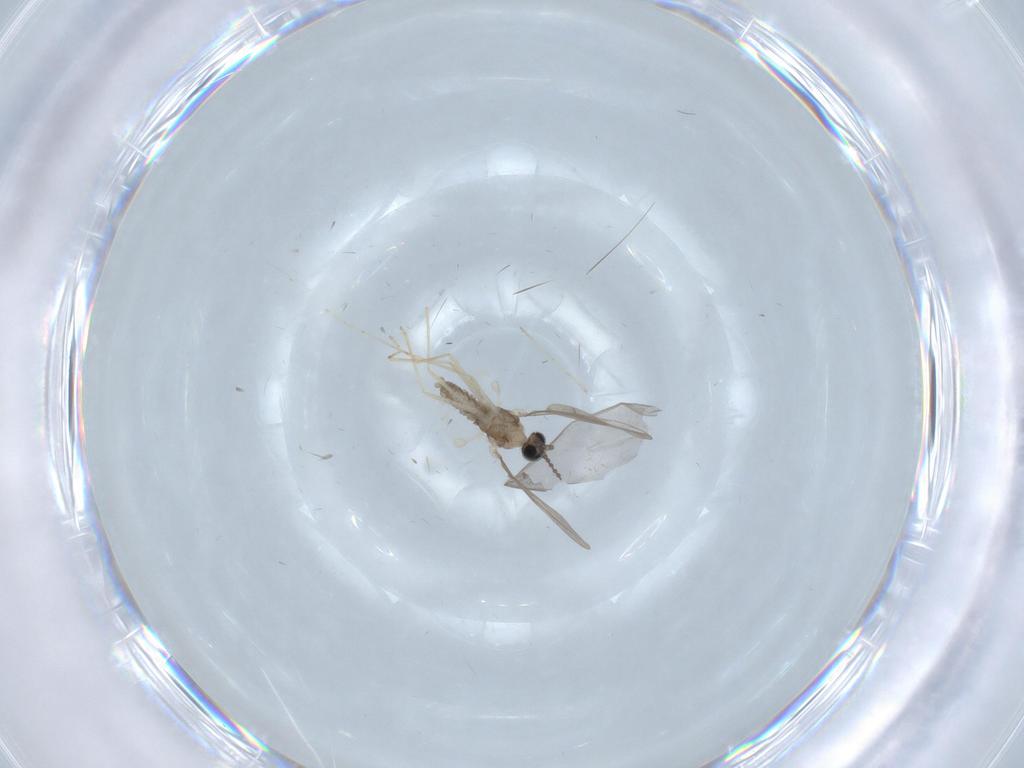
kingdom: Animalia
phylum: Arthropoda
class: Insecta
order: Diptera
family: Cecidomyiidae
